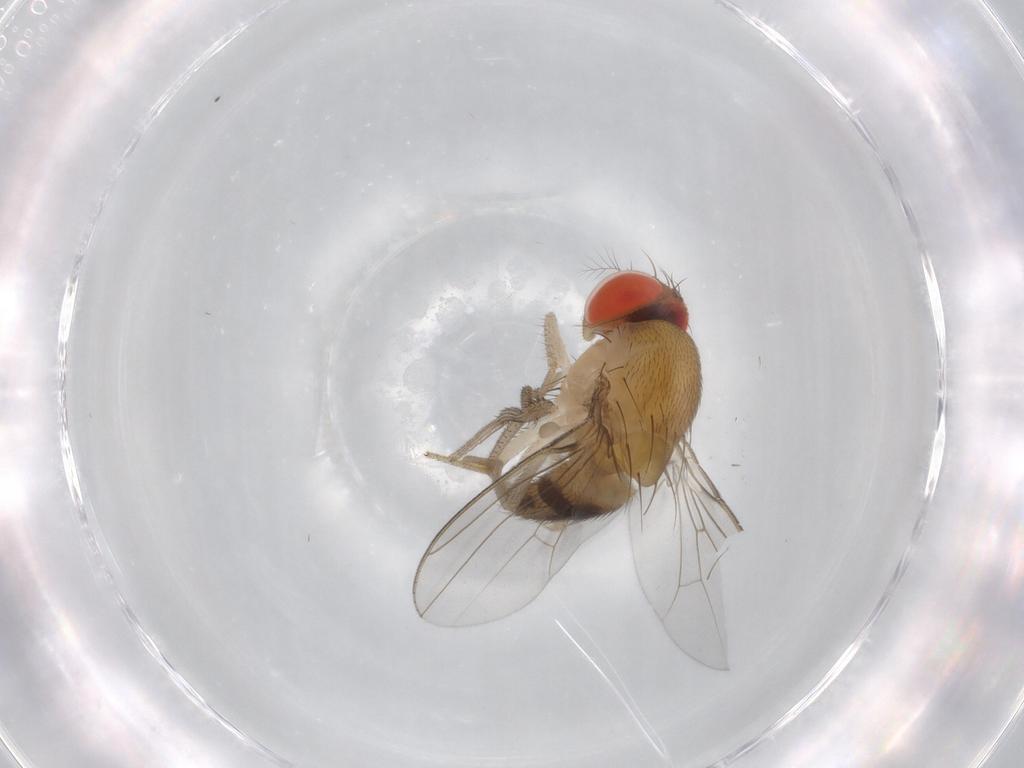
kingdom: Animalia
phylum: Arthropoda
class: Insecta
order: Diptera
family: Drosophilidae
